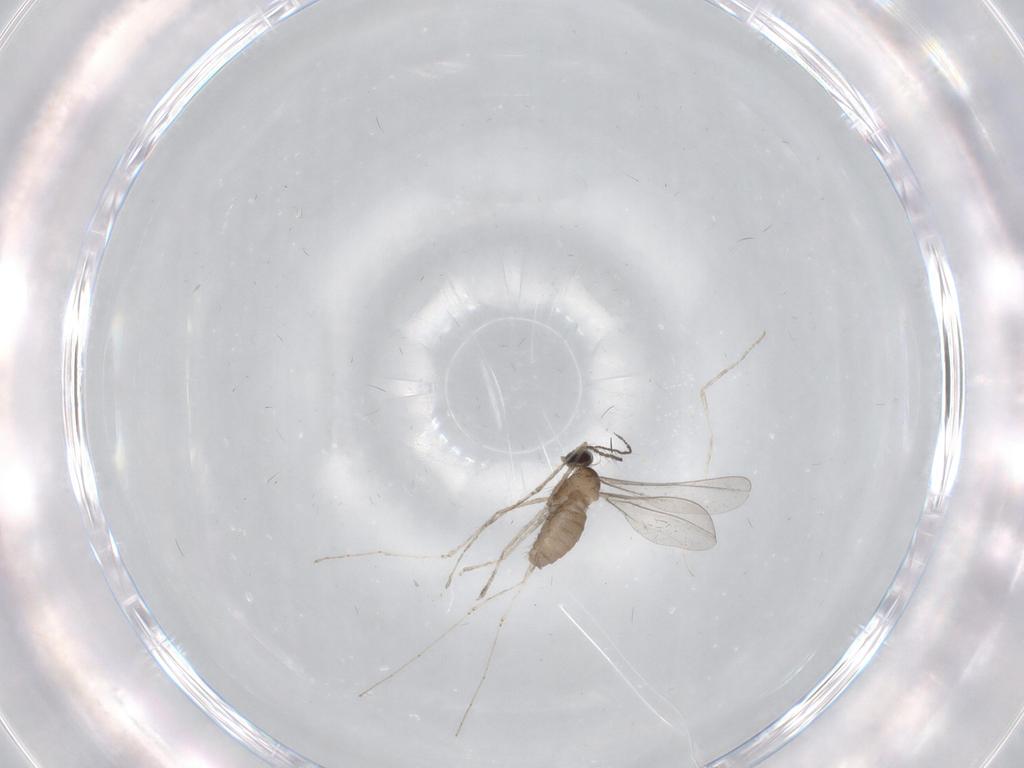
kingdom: Animalia
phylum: Arthropoda
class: Insecta
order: Diptera
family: Cecidomyiidae
